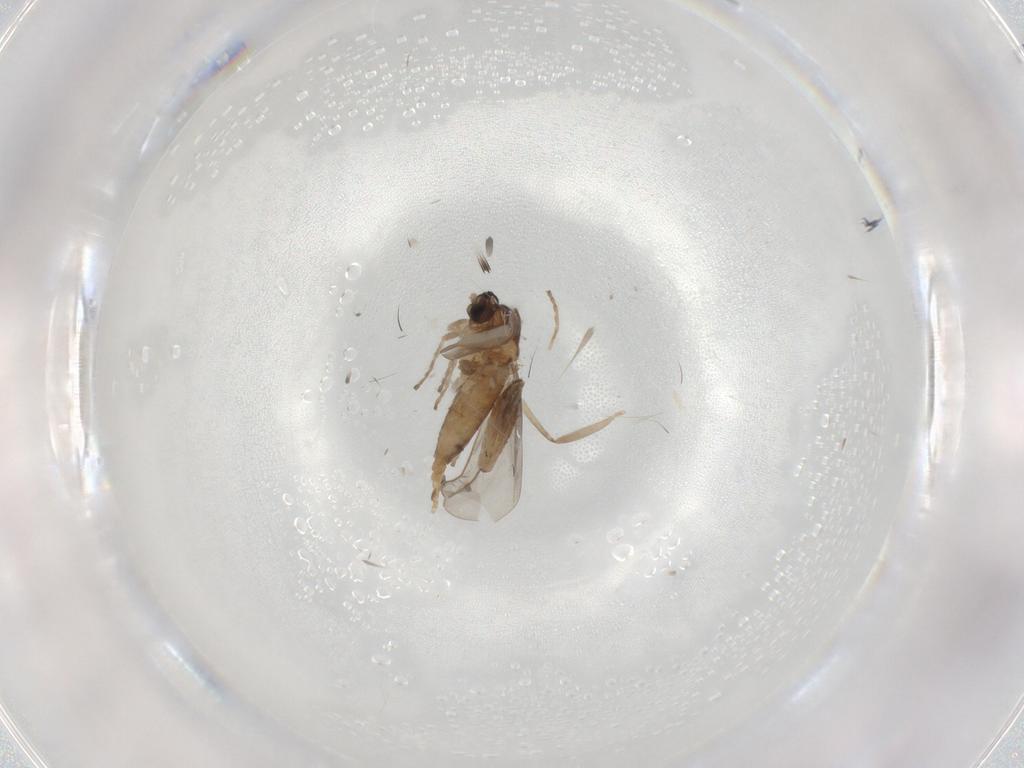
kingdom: Animalia
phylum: Arthropoda
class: Insecta
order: Diptera
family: Cecidomyiidae
